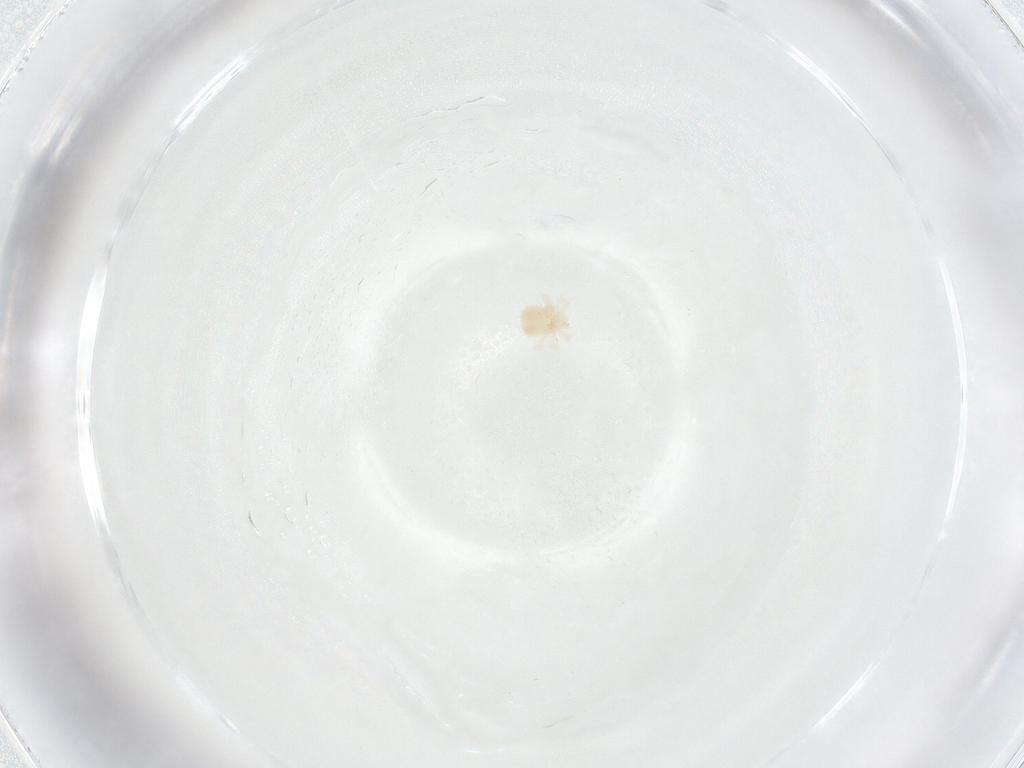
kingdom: Animalia
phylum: Arthropoda
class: Arachnida
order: Trombidiformes
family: Anystidae
